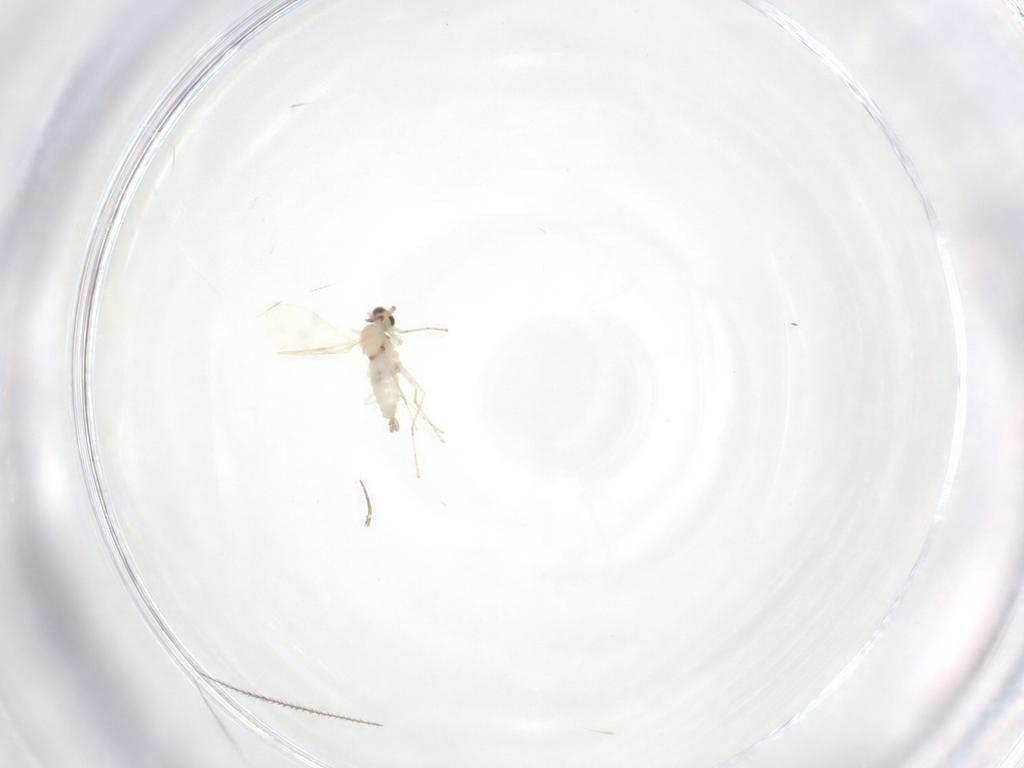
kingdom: Animalia
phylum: Arthropoda
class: Insecta
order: Diptera
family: Cecidomyiidae
